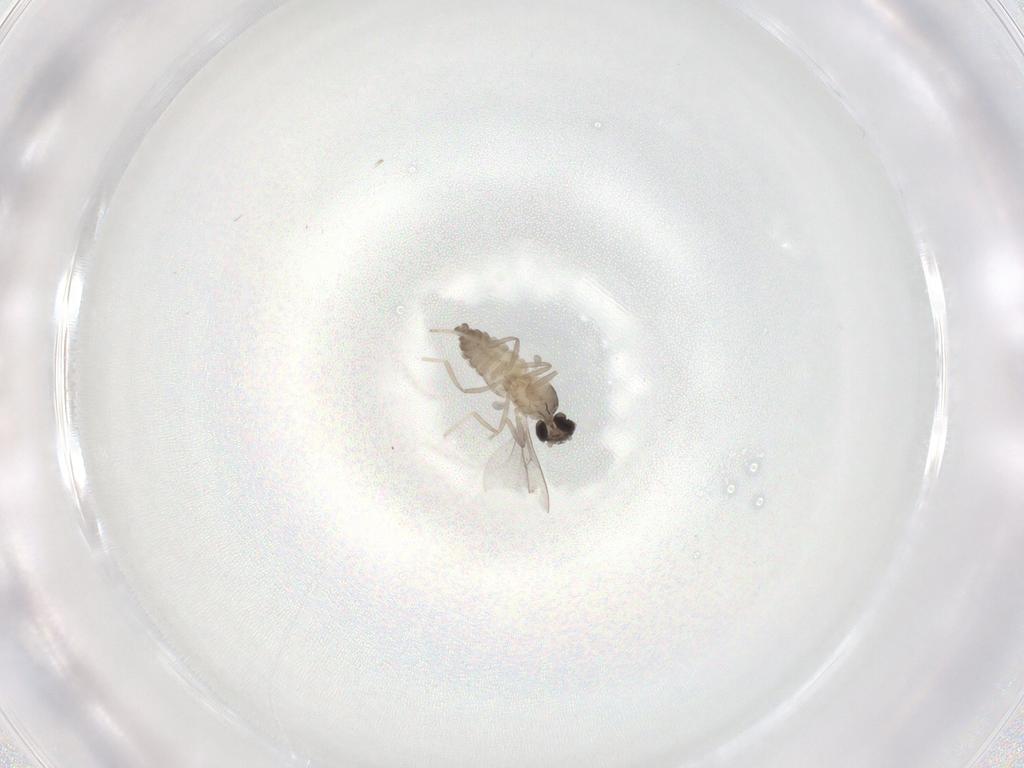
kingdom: Animalia
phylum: Arthropoda
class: Insecta
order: Diptera
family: Cecidomyiidae
